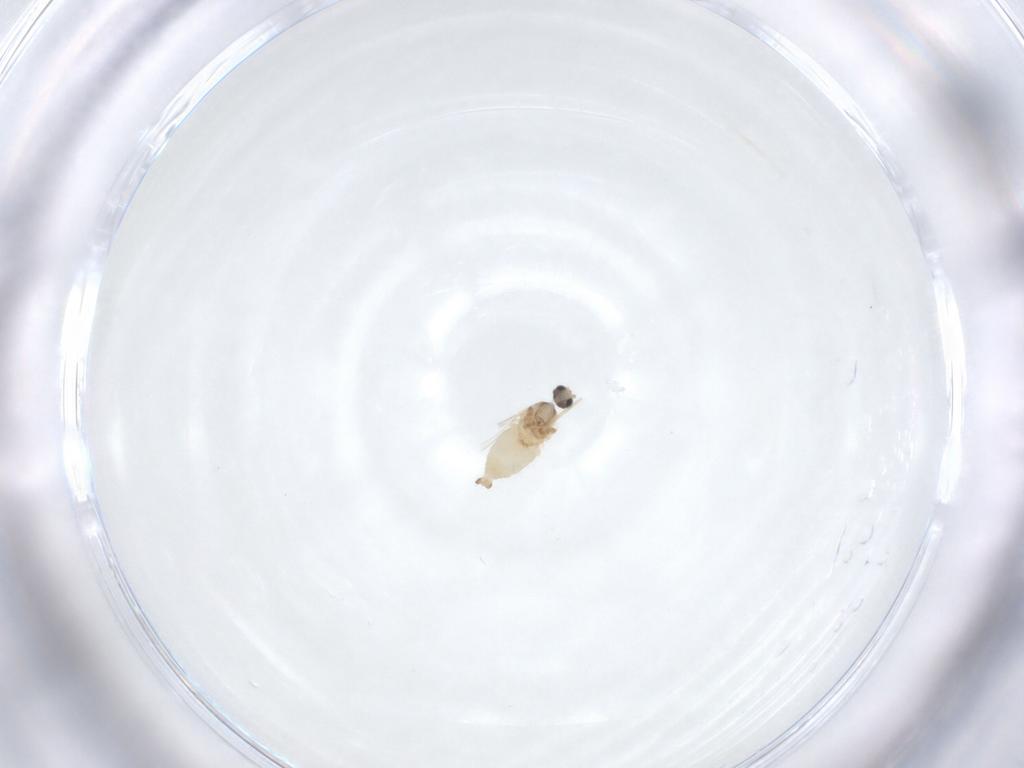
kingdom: Animalia
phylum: Arthropoda
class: Insecta
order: Diptera
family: Cecidomyiidae
